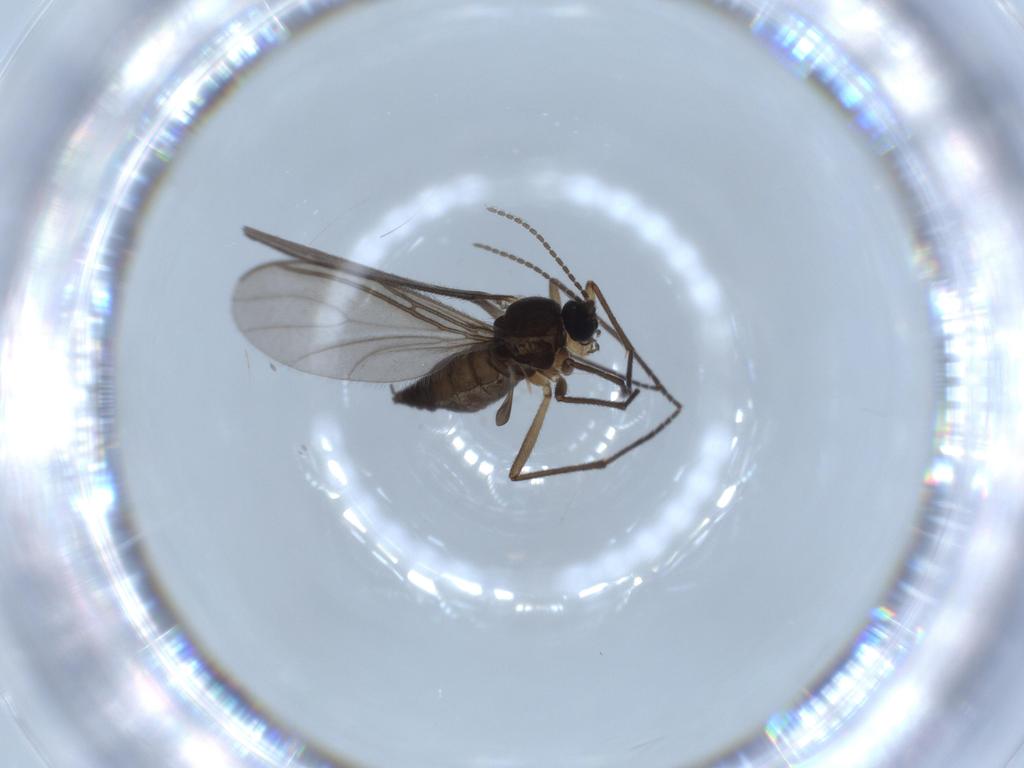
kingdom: Animalia
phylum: Arthropoda
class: Insecta
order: Diptera
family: Sciaridae
